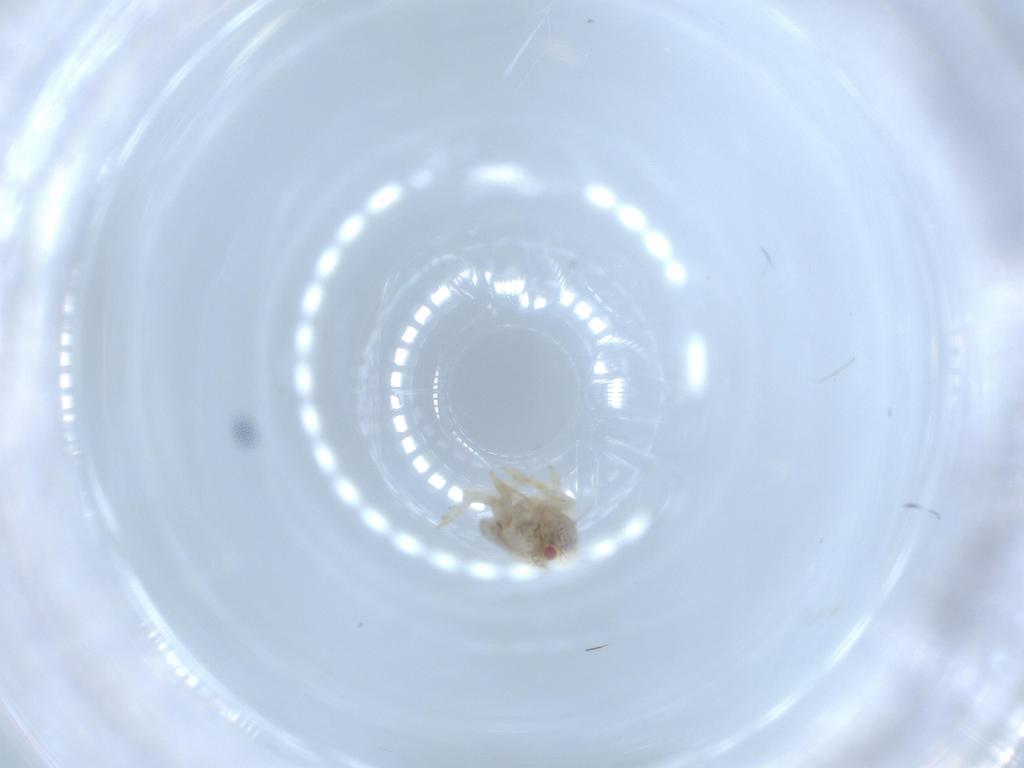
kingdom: Animalia
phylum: Arthropoda
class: Insecta
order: Hemiptera
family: Acanaloniidae
